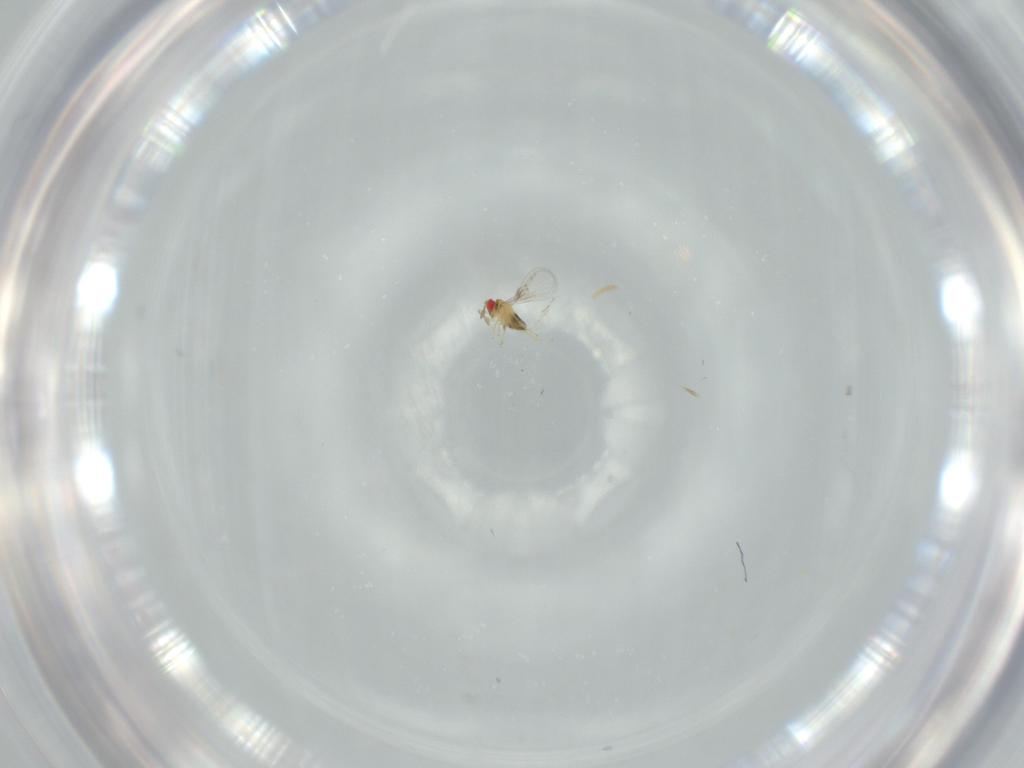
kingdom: Animalia
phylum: Arthropoda
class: Insecta
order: Hymenoptera
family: Trichogrammatidae
